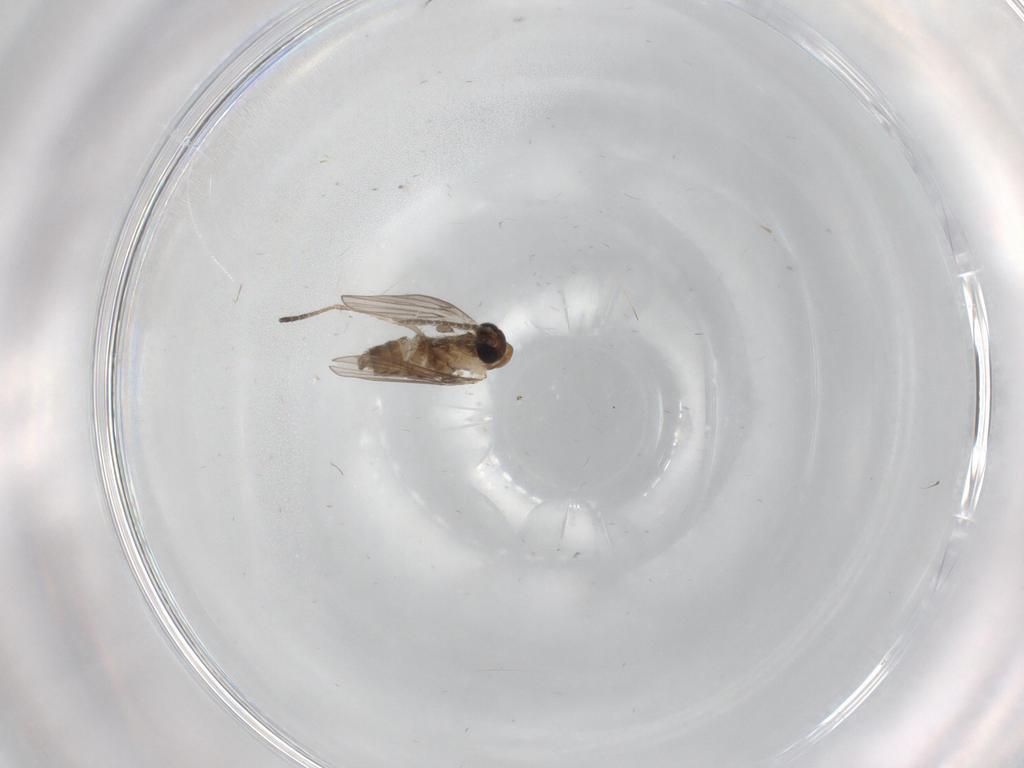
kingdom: Animalia
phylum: Arthropoda
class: Insecta
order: Diptera
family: Psychodidae
